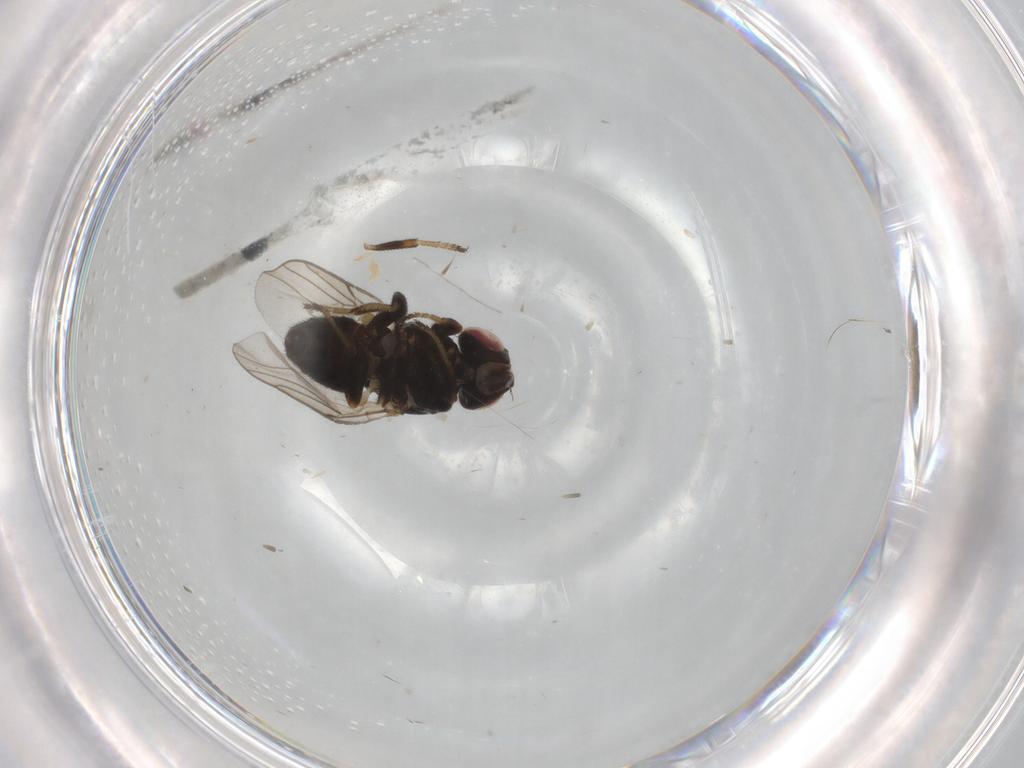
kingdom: Animalia
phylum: Arthropoda
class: Insecta
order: Diptera
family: Chloropidae
